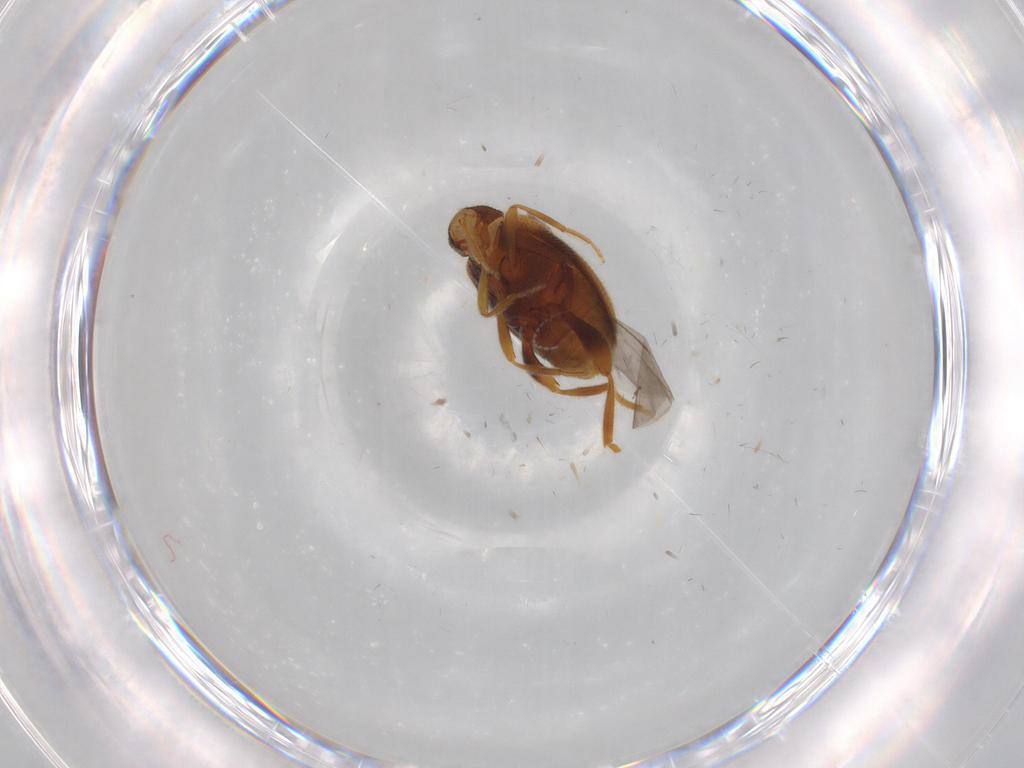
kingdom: Animalia
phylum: Arthropoda
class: Insecta
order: Coleoptera
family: Aderidae
